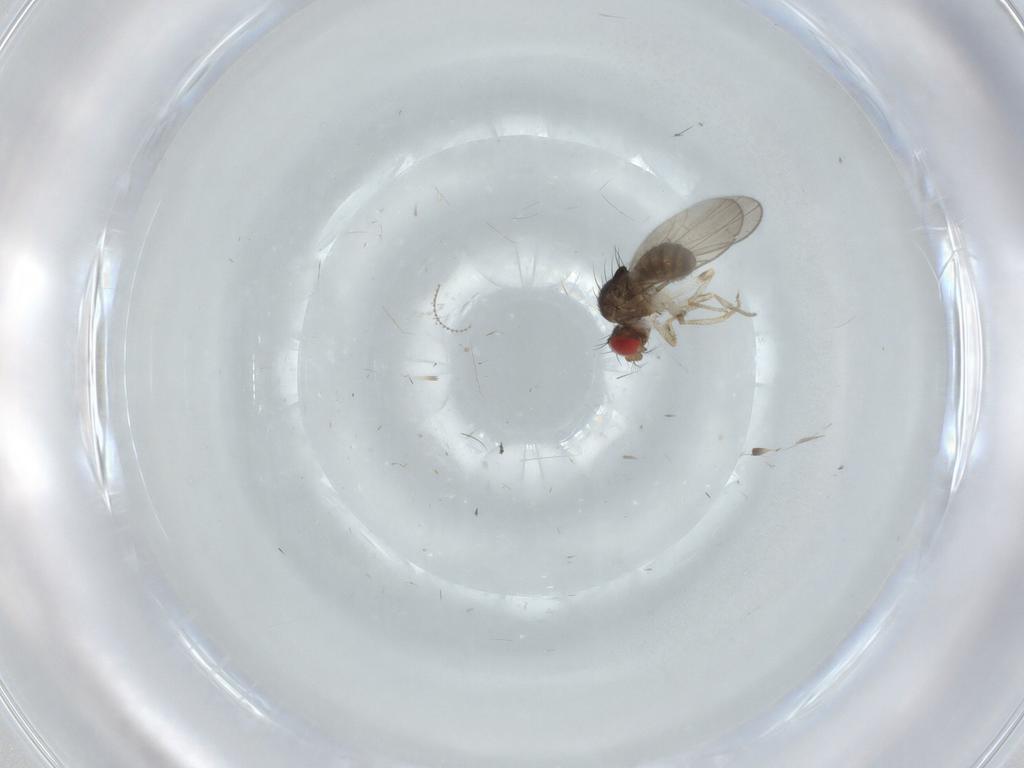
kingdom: Animalia
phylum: Arthropoda
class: Insecta
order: Diptera
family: Drosophilidae
